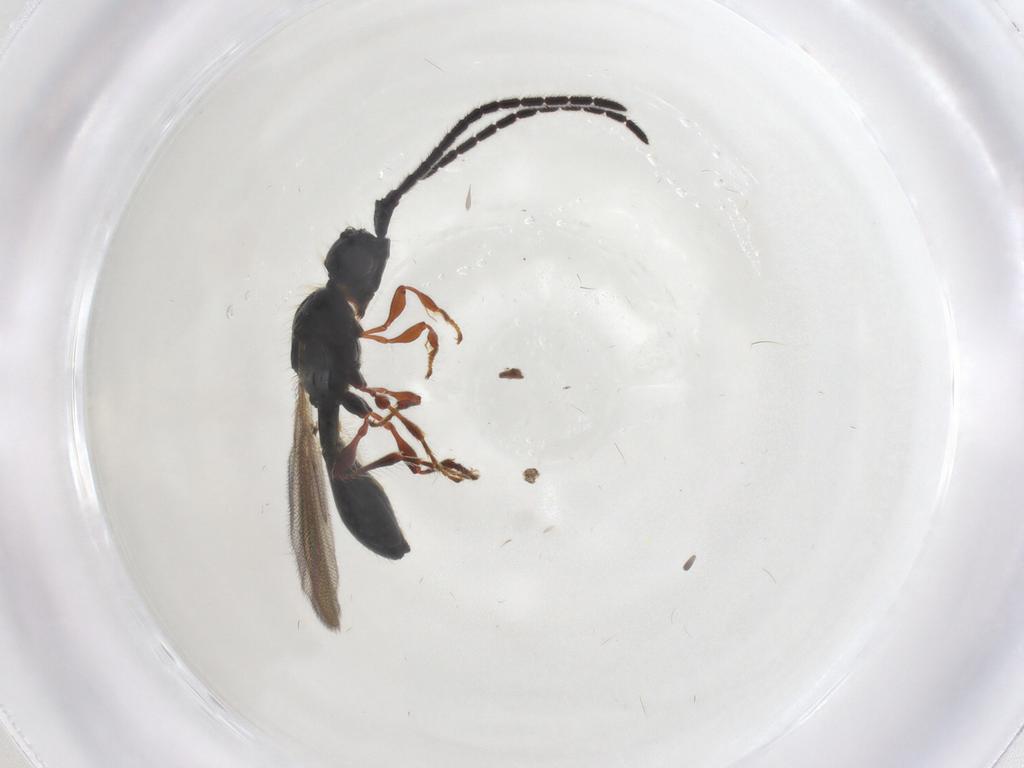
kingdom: Animalia
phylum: Arthropoda
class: Insecta
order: Hymenoptera
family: Diapriidae
